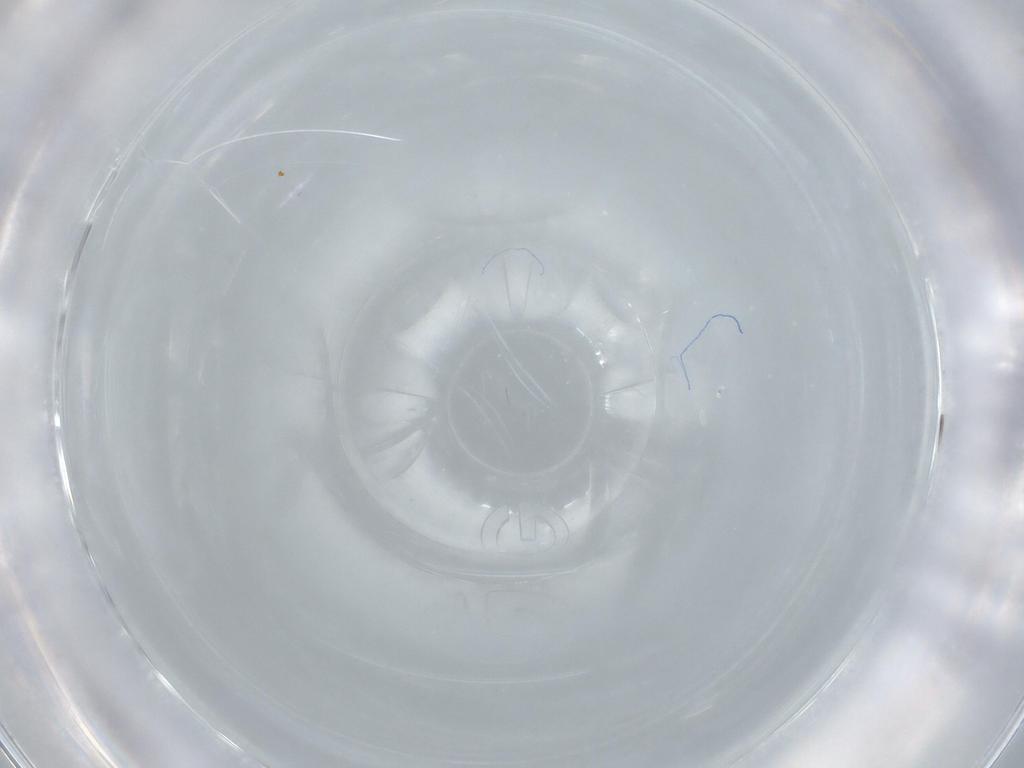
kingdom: Animalia
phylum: Arthropoda
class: Insecta
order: Diptera
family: Cecidomyiidae
